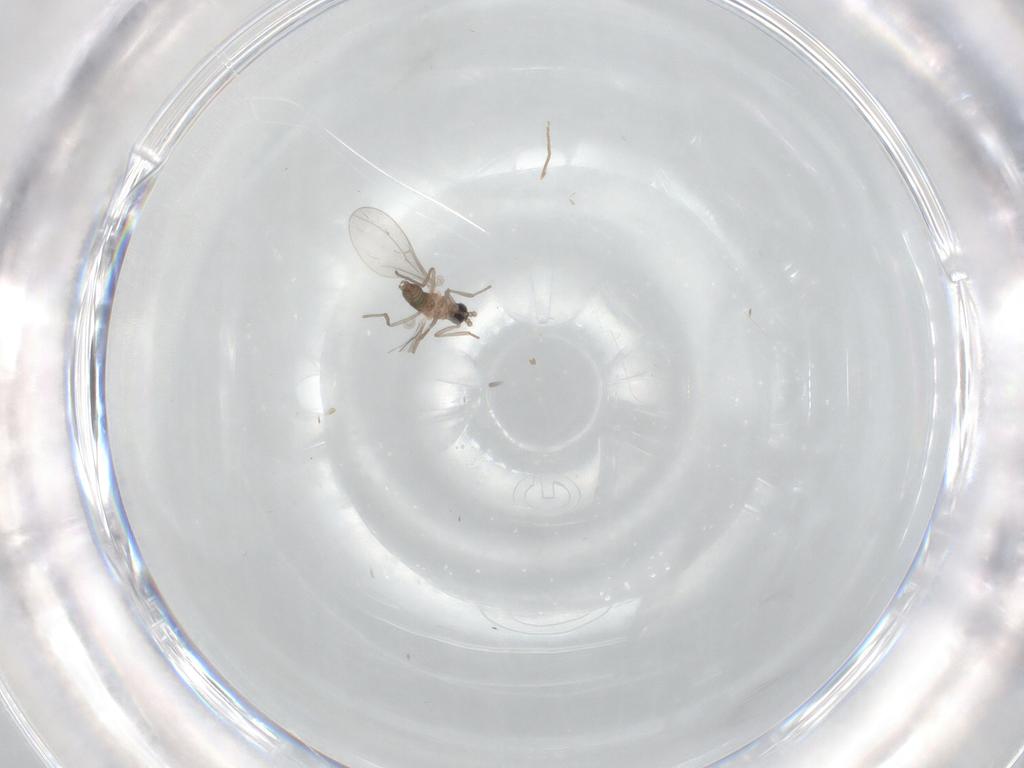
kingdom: Animalia
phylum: Arthropoda
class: Insecta
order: Diptera
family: Cecidomyiidae
